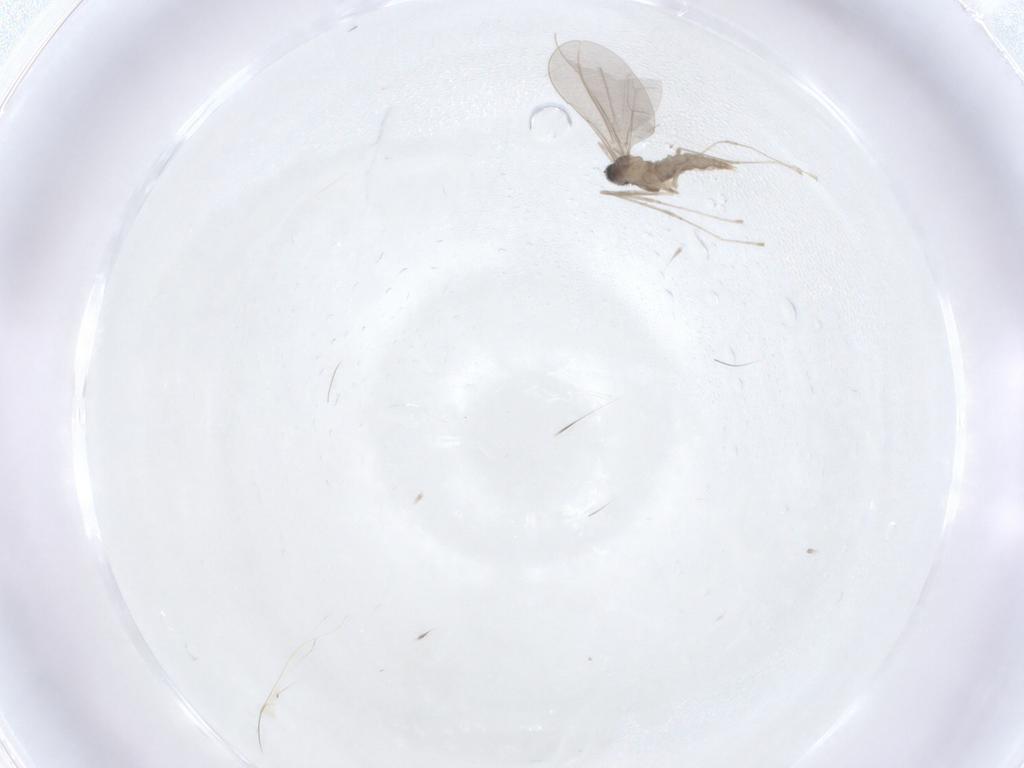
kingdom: Animalia
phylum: Arthropoda
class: Insecta
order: Diptera
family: Cecidomyiidae
